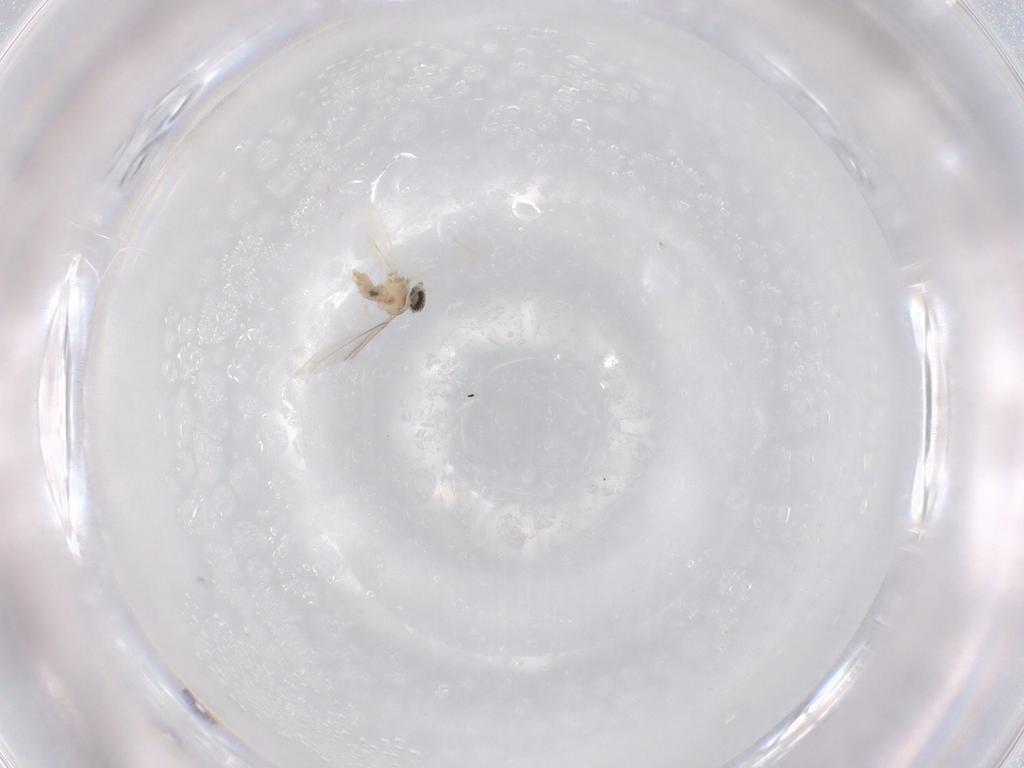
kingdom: Animalia
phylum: Arthropoda
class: Insecta
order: Diptera
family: Cecidomyiidae
